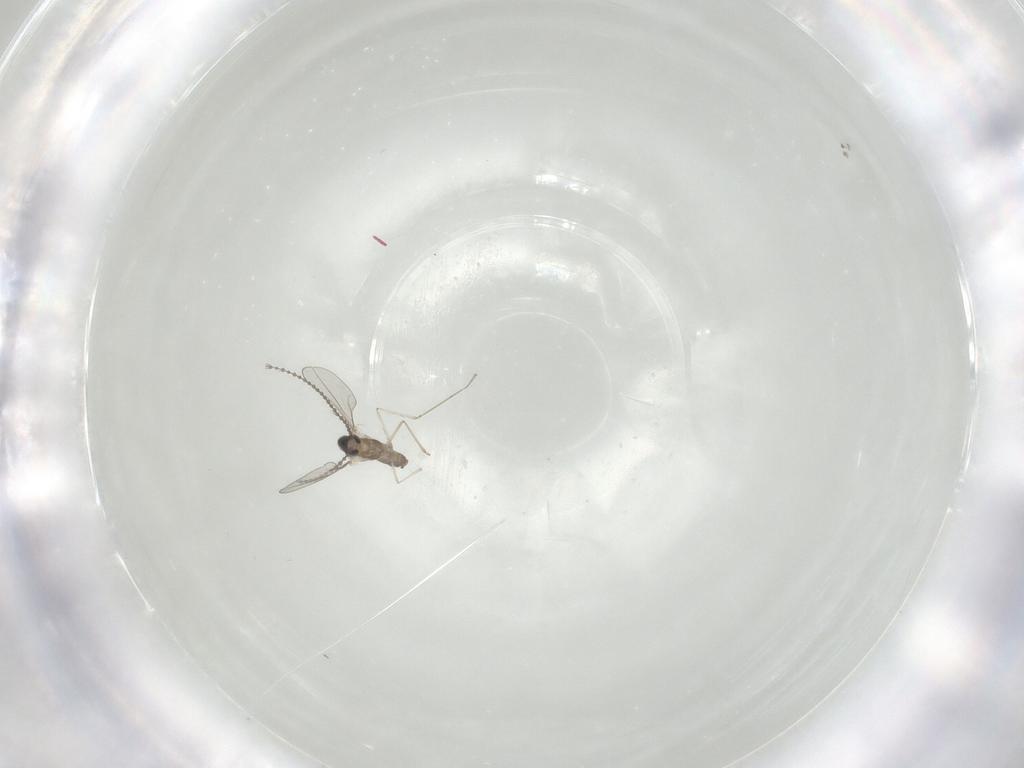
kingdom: Animalia
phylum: Arthropoda
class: Insecta
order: Diptera
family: Cecidomyiidae
